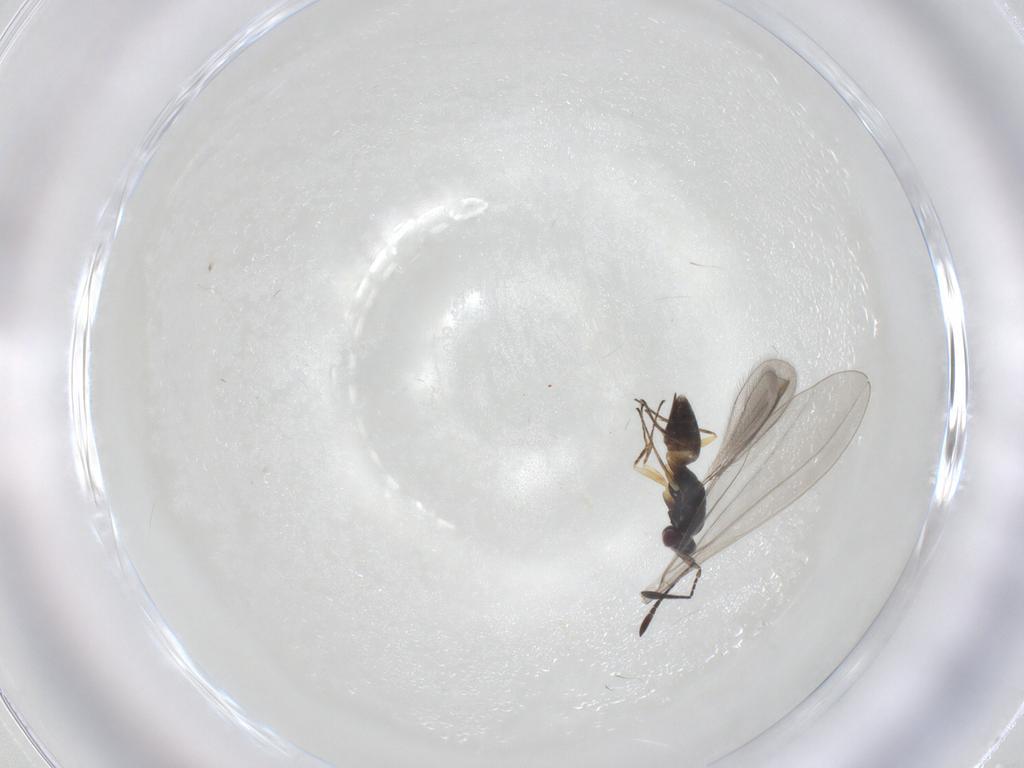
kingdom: Animalia
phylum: Arthropoda
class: Insecta
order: Hymenoptera
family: Mymaridae
